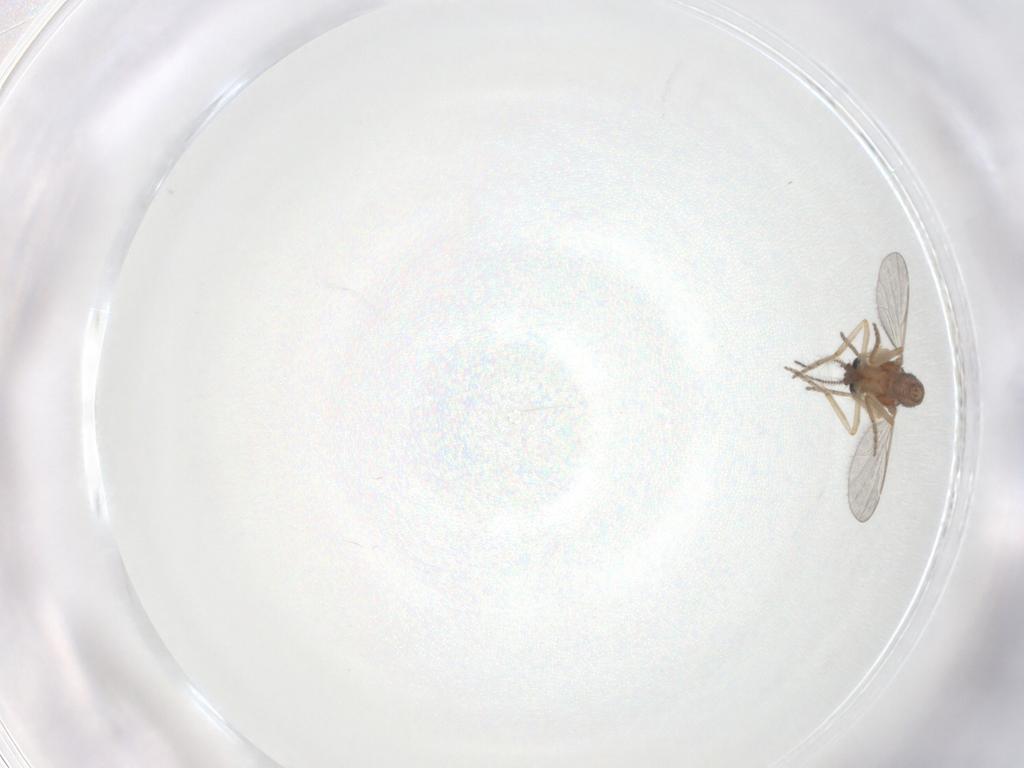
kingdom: Animalia
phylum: Arthropoda
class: Insecta
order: Diptera
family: Ceratopogonidae
